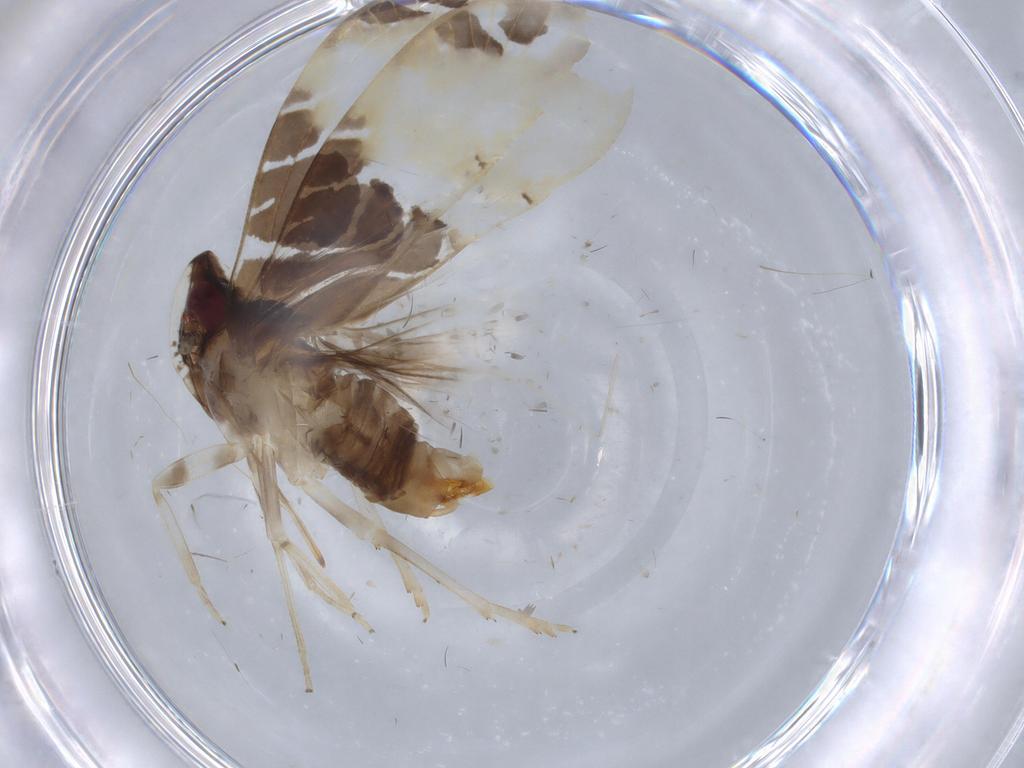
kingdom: Animalia
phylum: Arthropoda
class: Insecta
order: Hemiptera
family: Cixiidae
